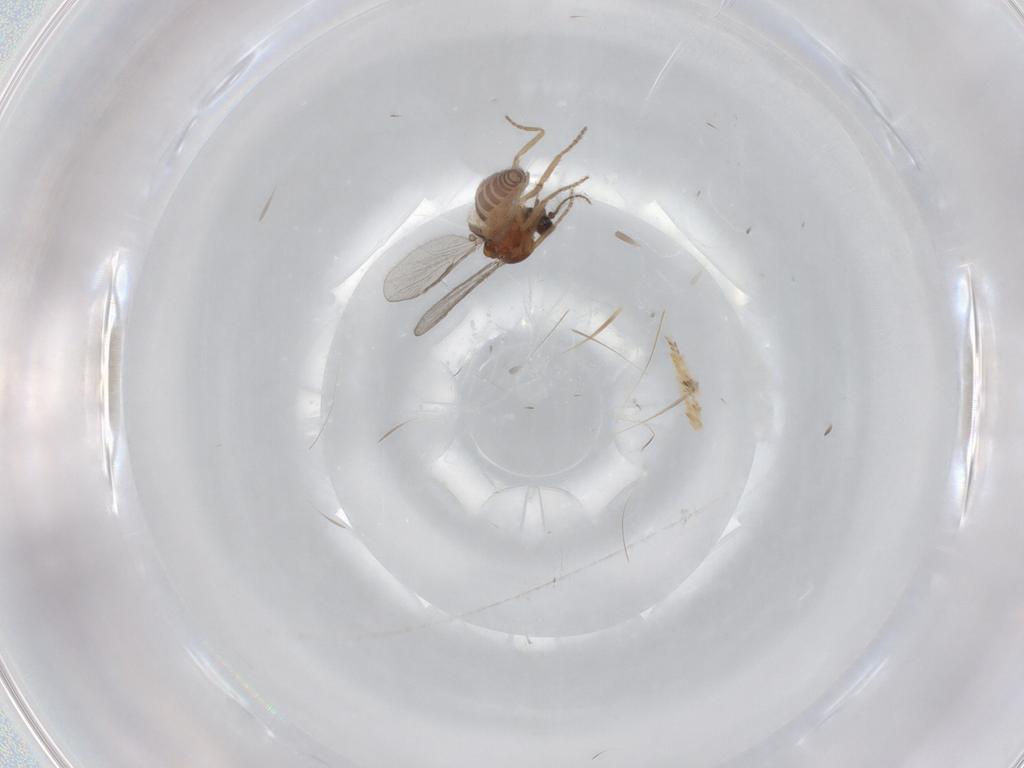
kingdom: Animalia
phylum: Arthropoda
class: Insecta
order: Diptera
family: Ceratopogonidae
